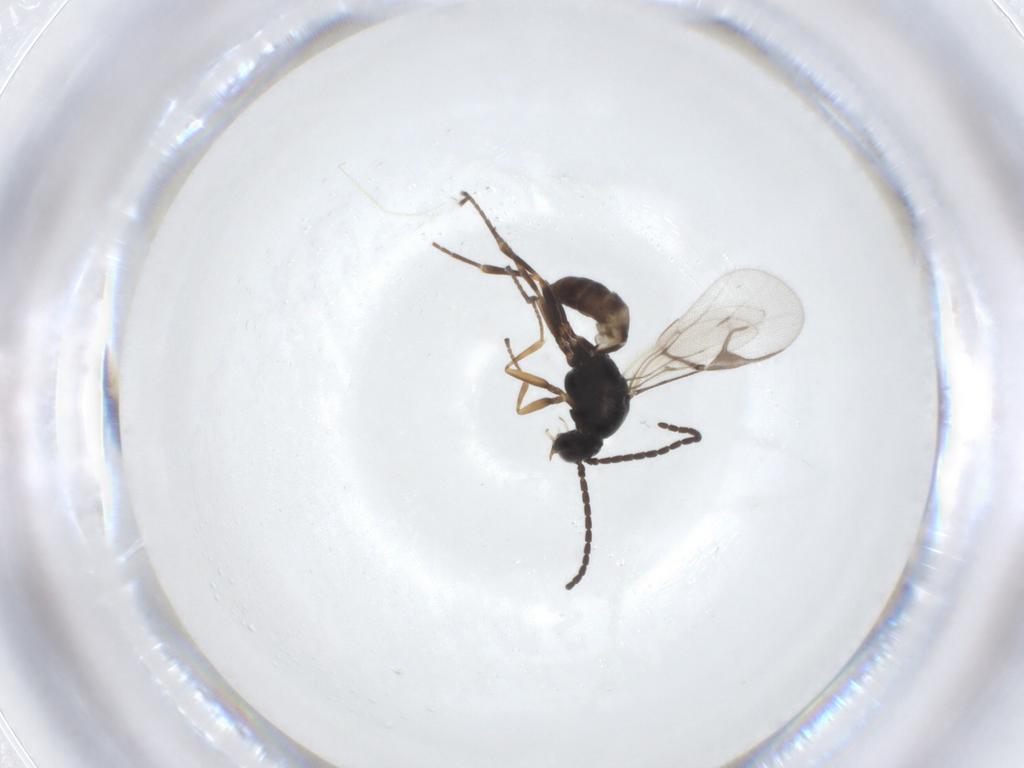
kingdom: Animalia
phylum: Arthropoda
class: Insecta
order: Hymenoptera
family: Braconidae
